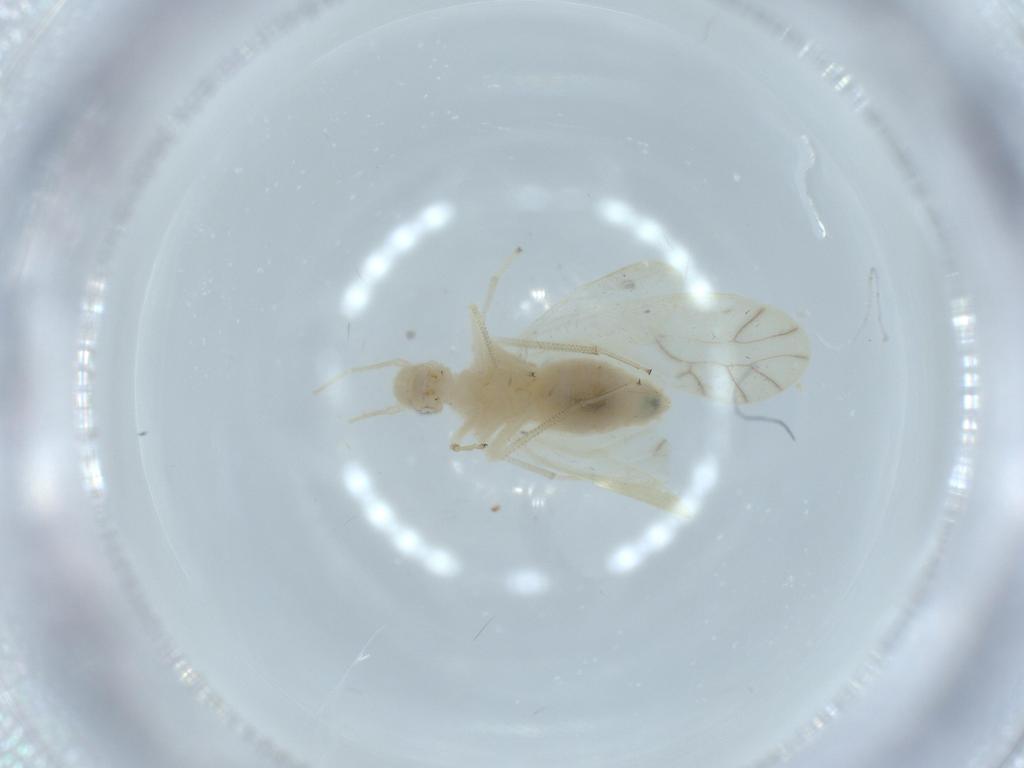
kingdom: Animalia
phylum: Arthropoda
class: Insecta
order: Psocodea
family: Caeciliusidae
